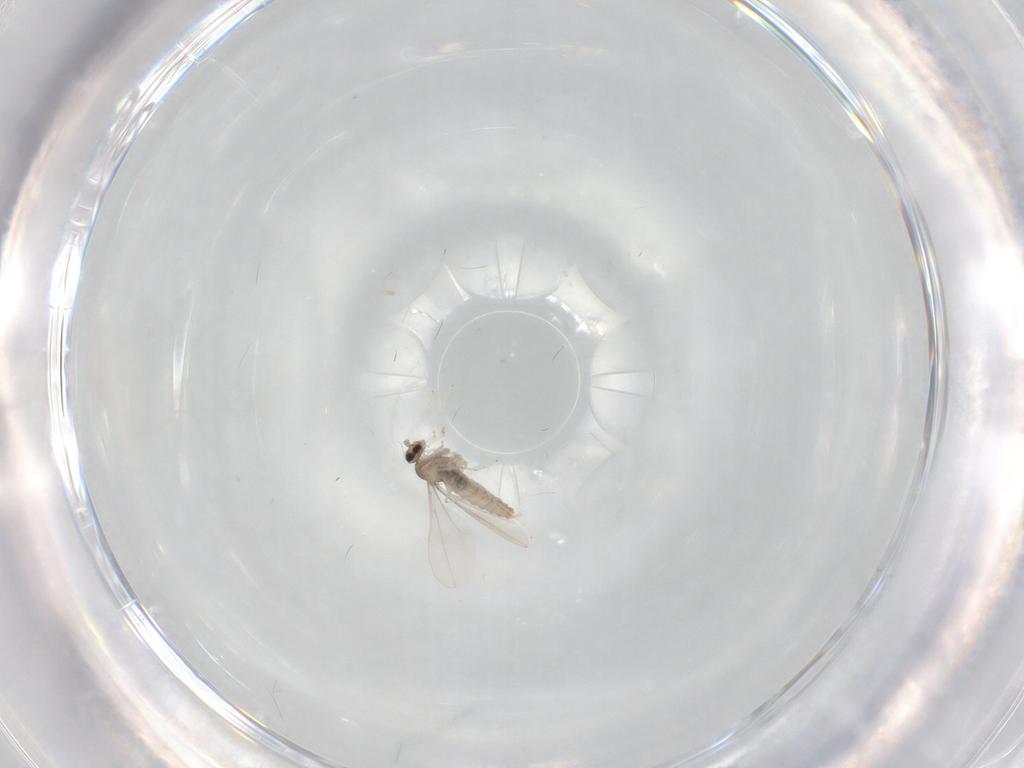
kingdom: Animalia
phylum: Arthropoda
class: Insecta
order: Diptera
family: Cecidomyiidae
